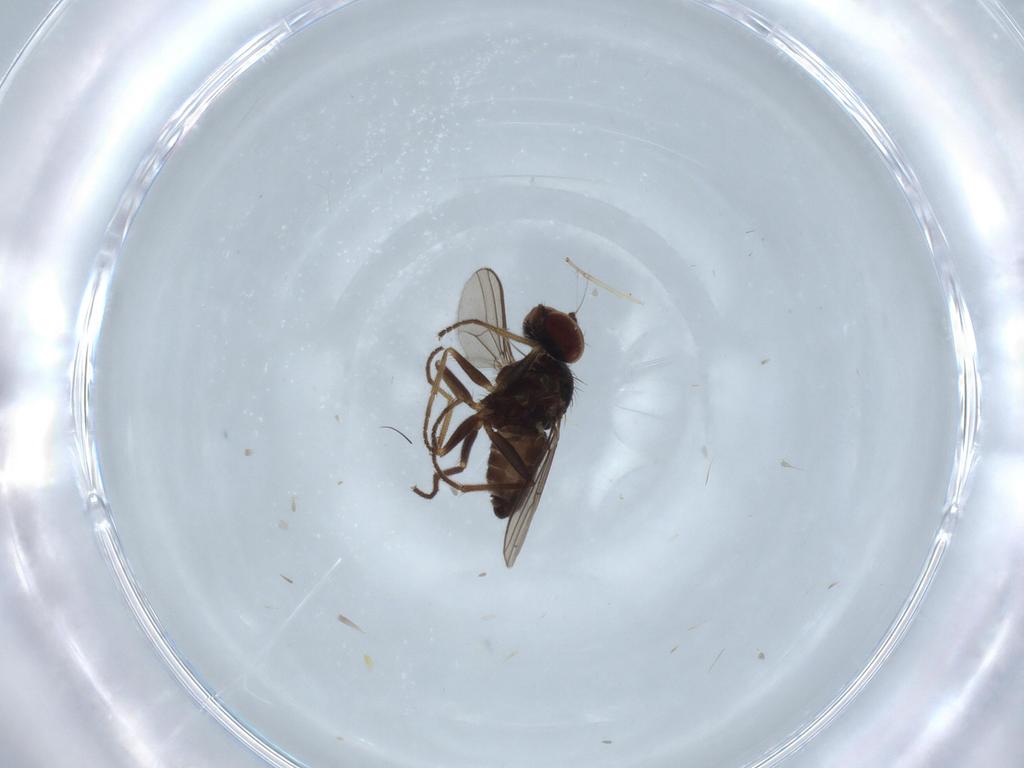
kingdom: Animalia
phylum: Arthropoda
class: Insecta
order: Diptera
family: Dolichopodidae
